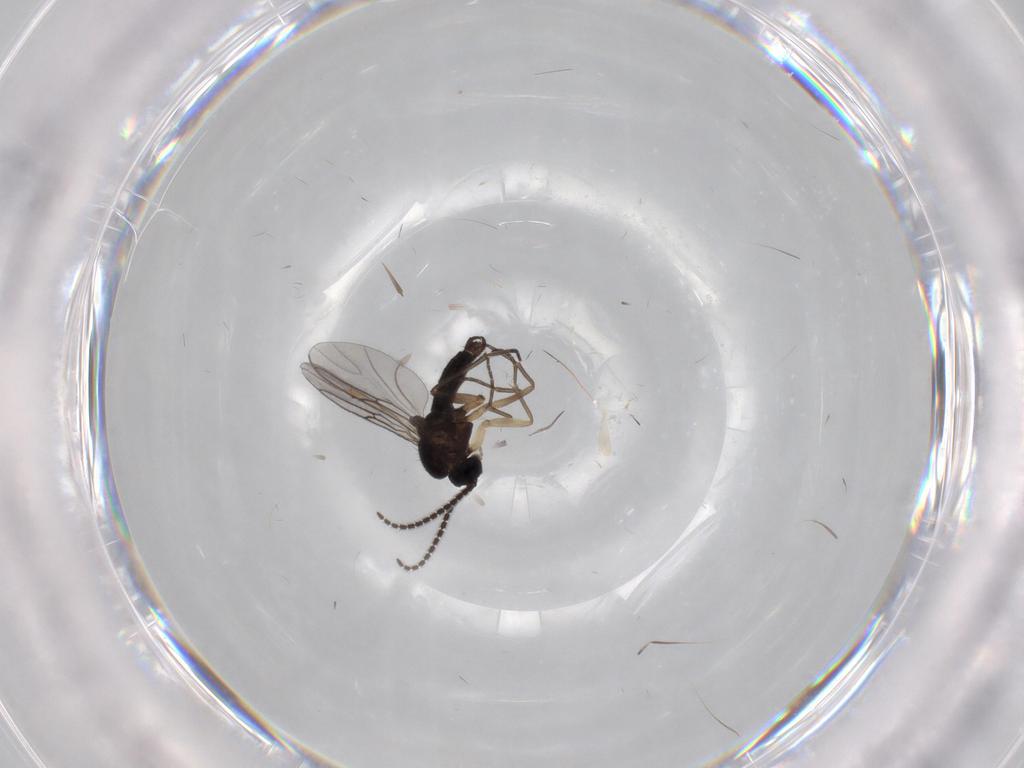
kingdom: Animalia
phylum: Arthropoda
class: Insecta
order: Diptera
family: Sciaridae
